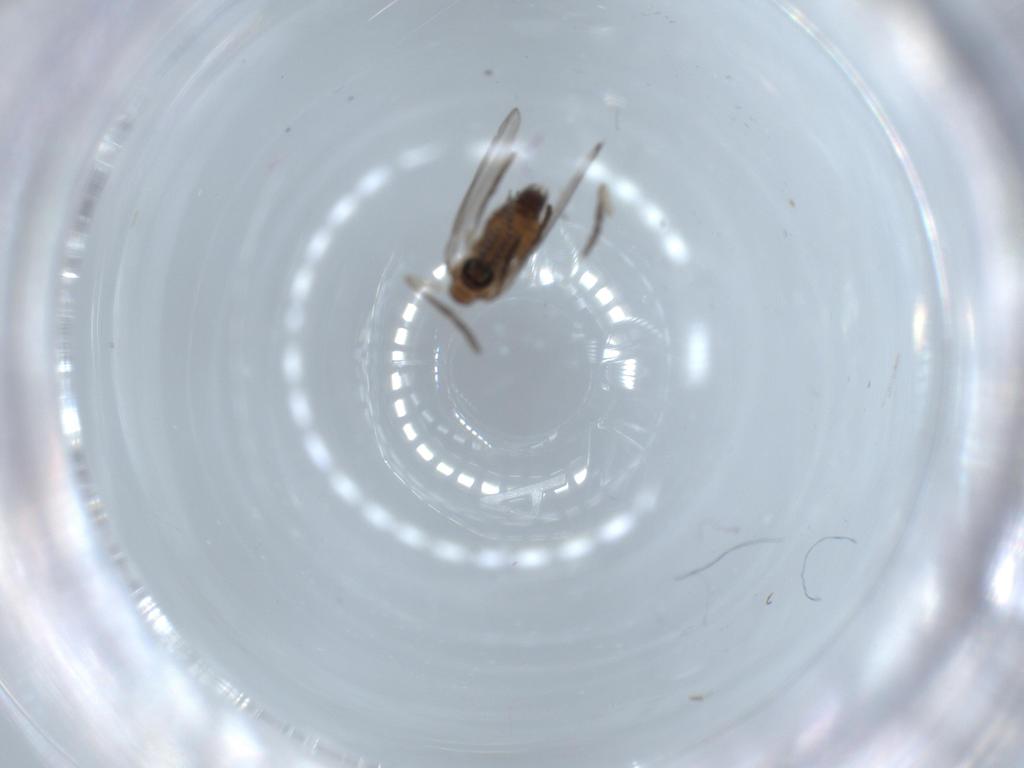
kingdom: Animalia
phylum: Arthropoda
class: Insecta
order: Diptera
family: Psychodidae
